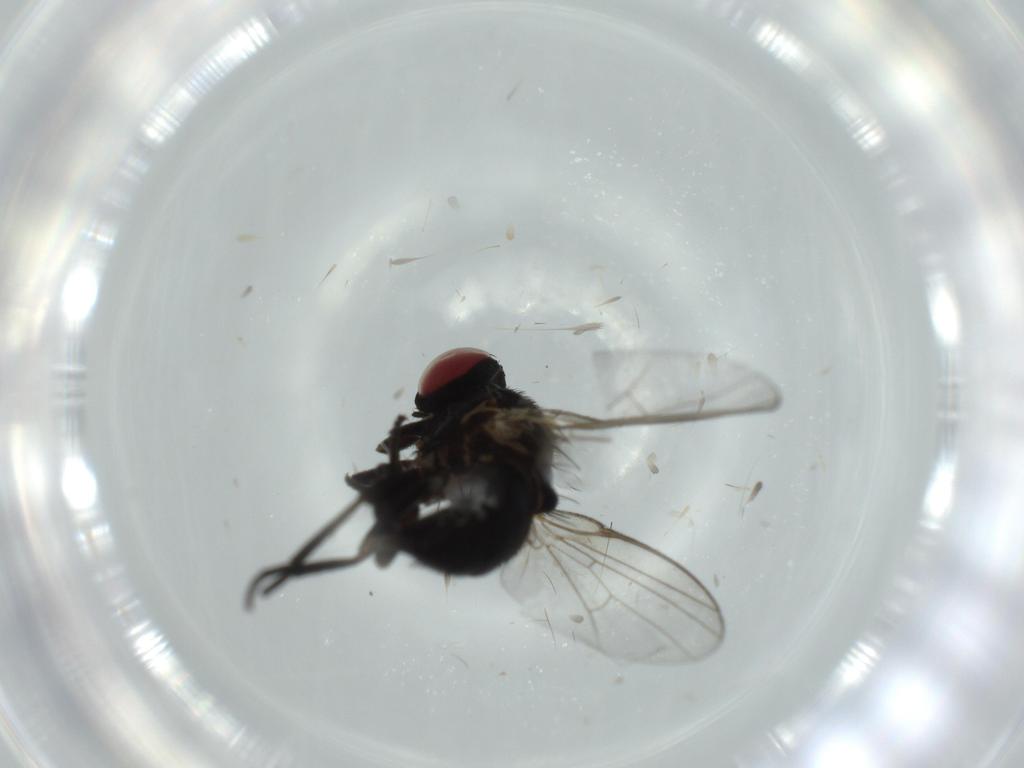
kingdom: Animalia
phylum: Arthropoda
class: Insecta
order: Diptera
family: Agromyzidae
